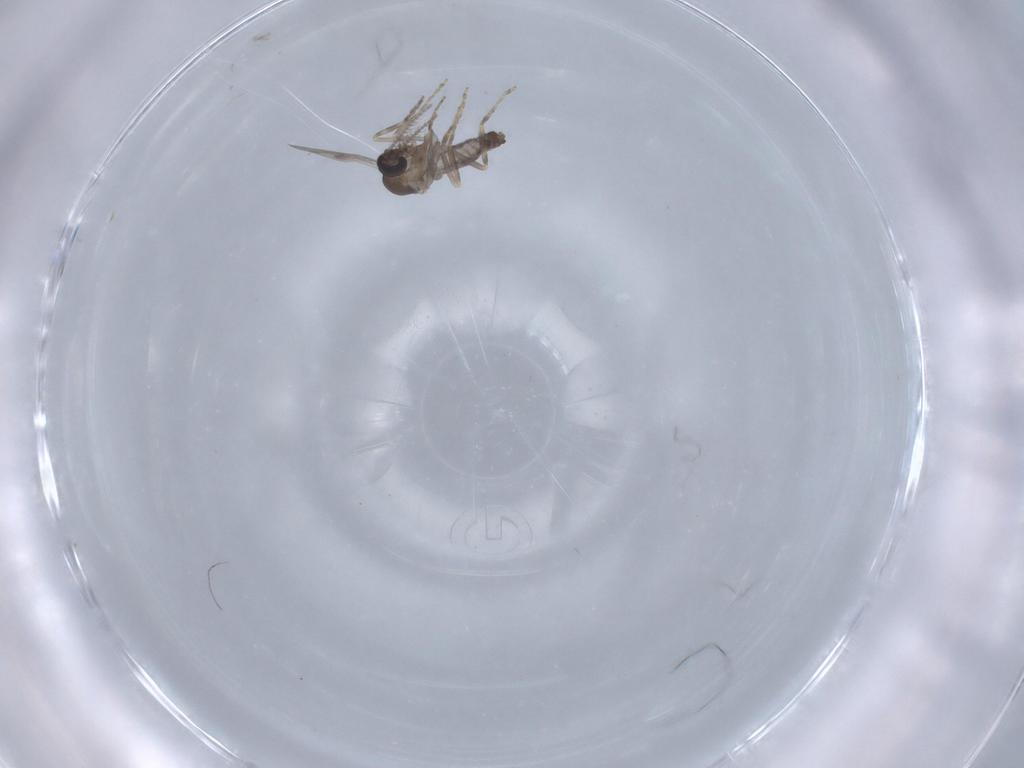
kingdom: Animalia
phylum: Arthropoda
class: Insecta
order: Diptera
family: Ceratopogonidae
